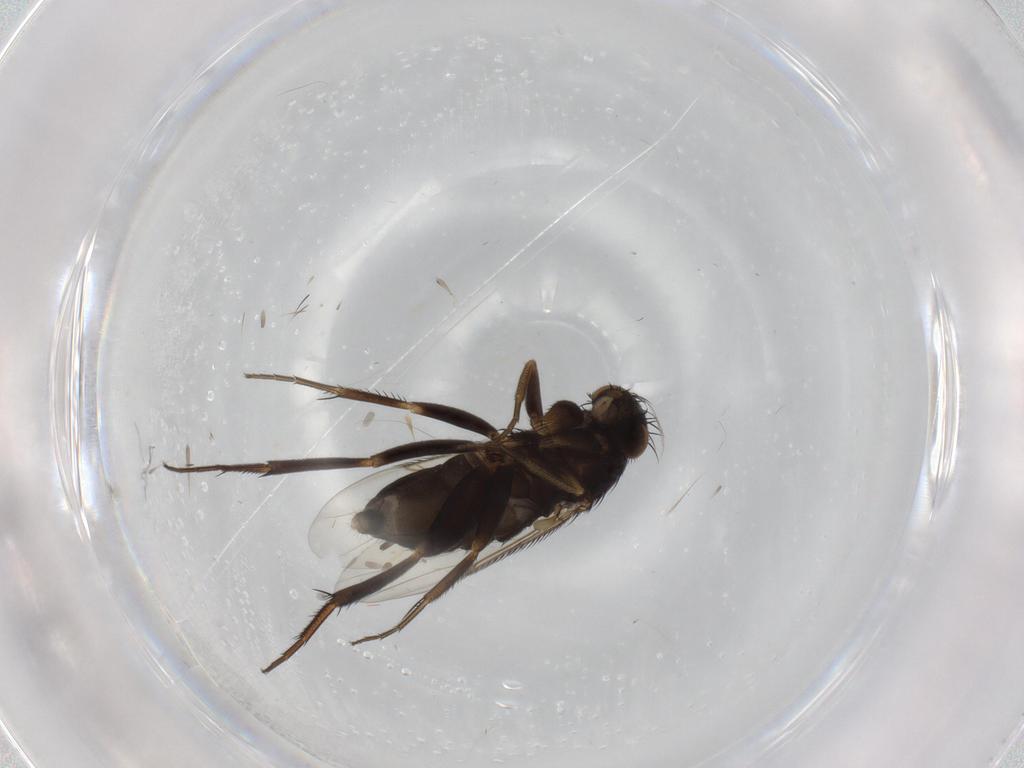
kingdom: Animalia
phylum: Arthropoda
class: Insecta
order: Diptera
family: Phoridae
